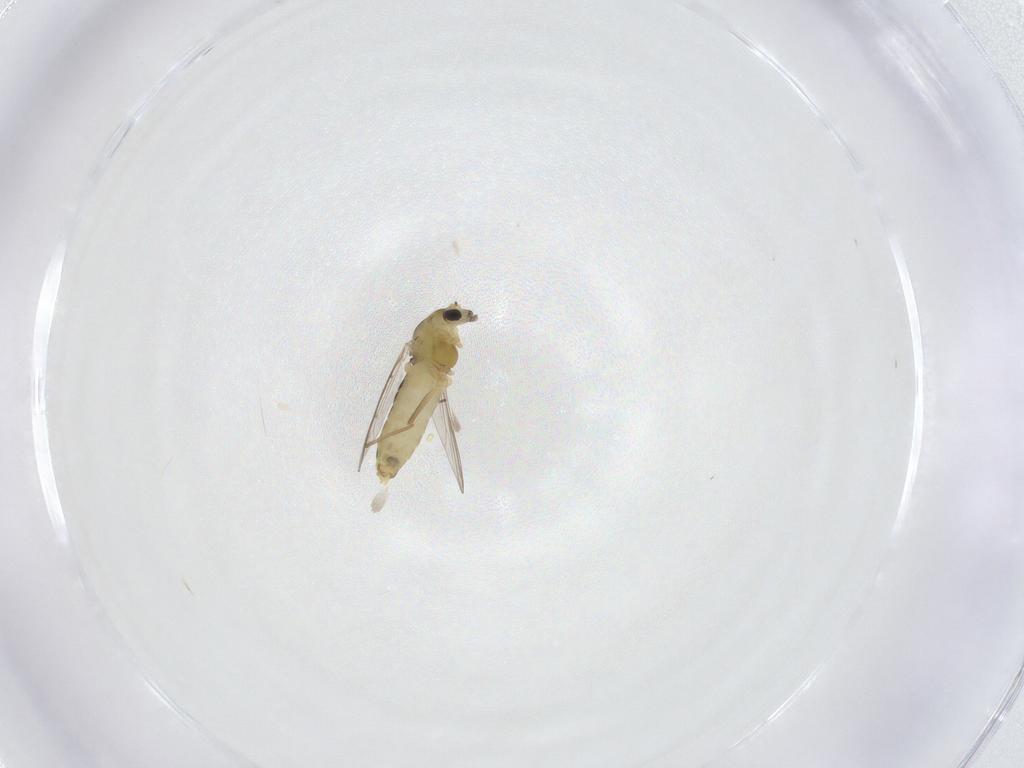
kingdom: Animalia
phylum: Arthropoda
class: Insecta
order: Diptera
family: Chironomidae
